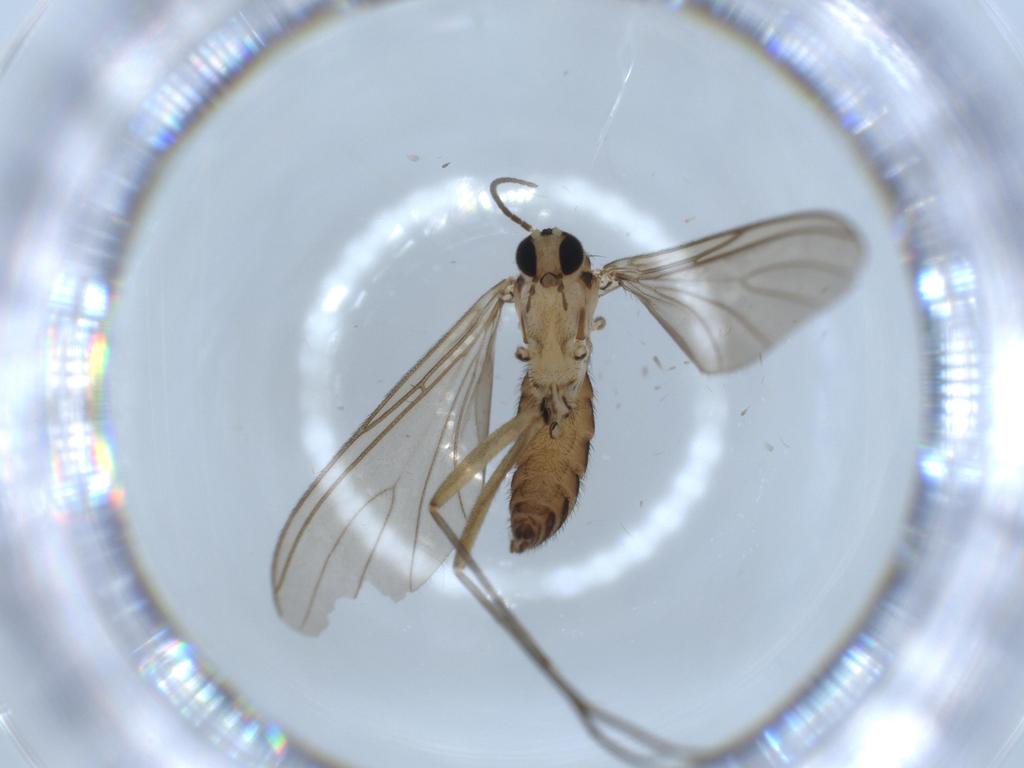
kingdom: Animalia
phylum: Arthropoda
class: Insecta
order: Diptera
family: Sciaridae
